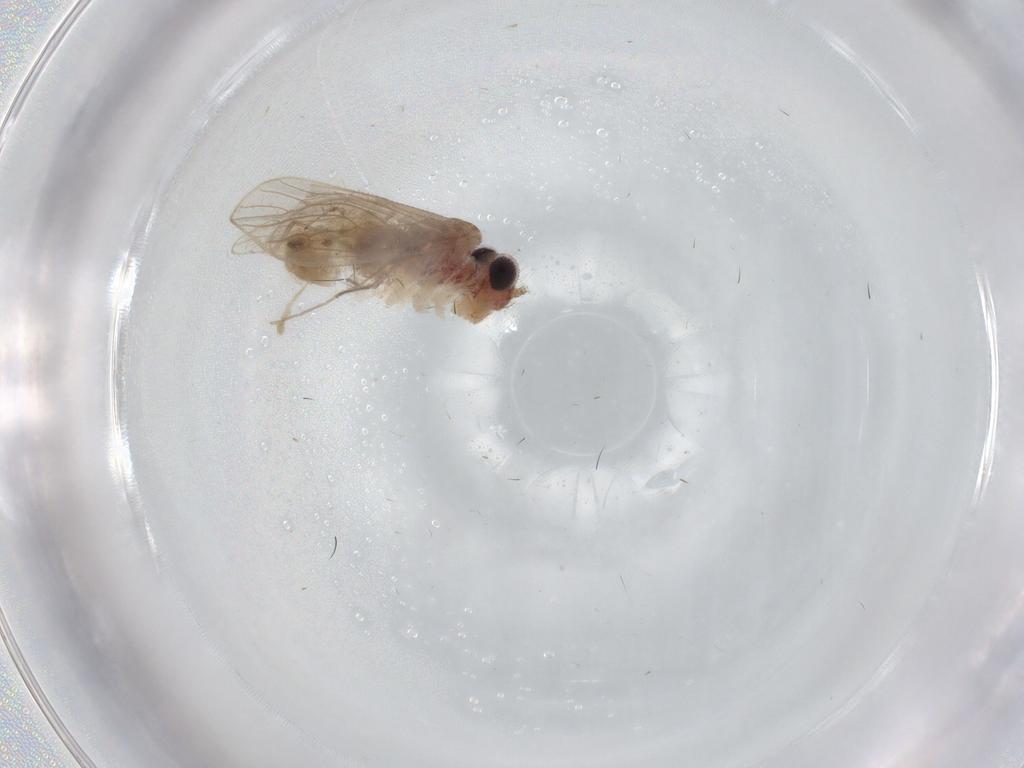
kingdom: Animalia
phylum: Arthropoda
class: Insecta
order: Psocodea
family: Cladiopsocidae
